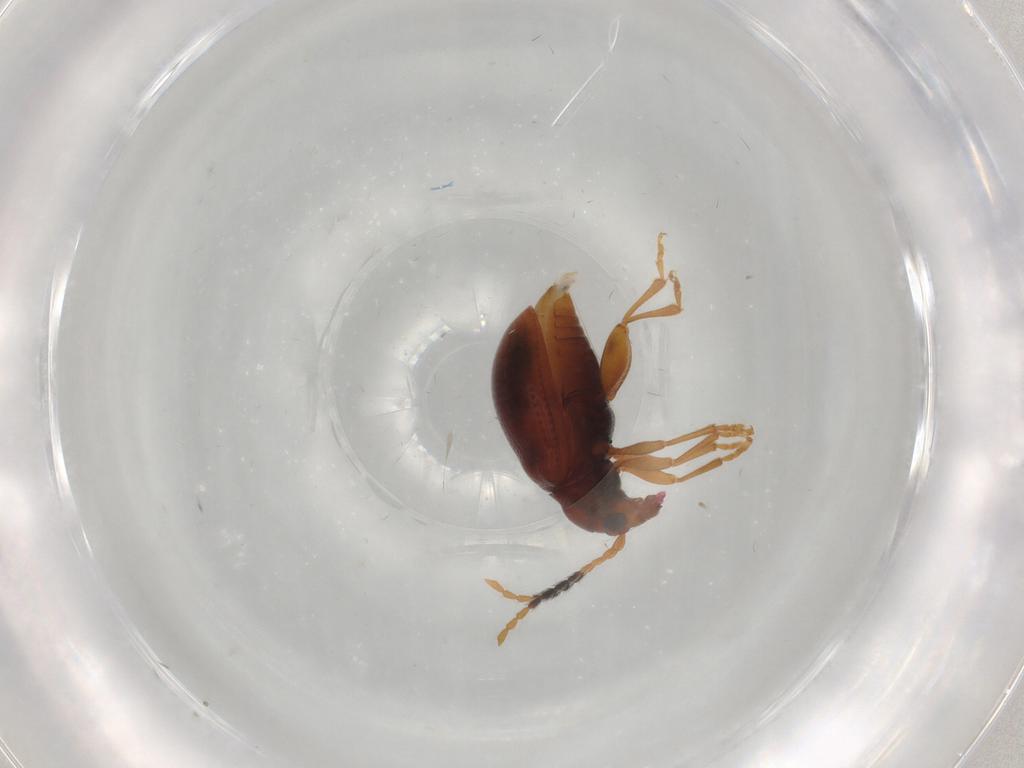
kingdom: Animalia
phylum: Arthropoda
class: Insecta
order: Coleoptera
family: Chrysomelidae
